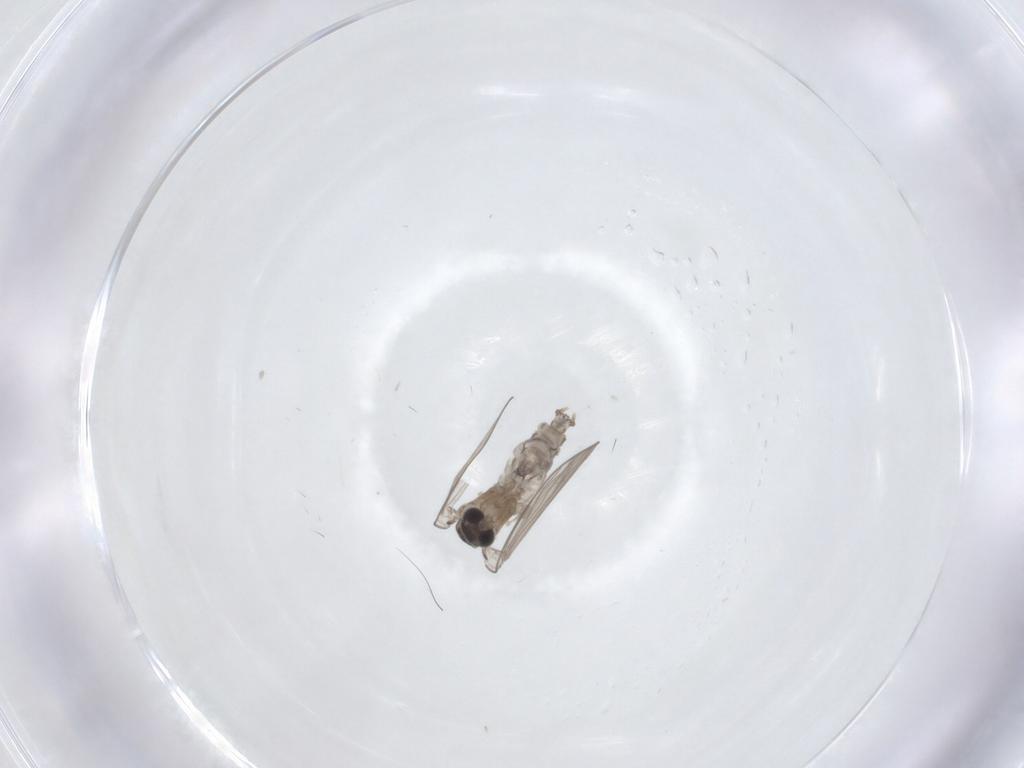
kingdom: Animalia
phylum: Arthropoda
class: Insecta
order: Diptera
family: Psychodidae
